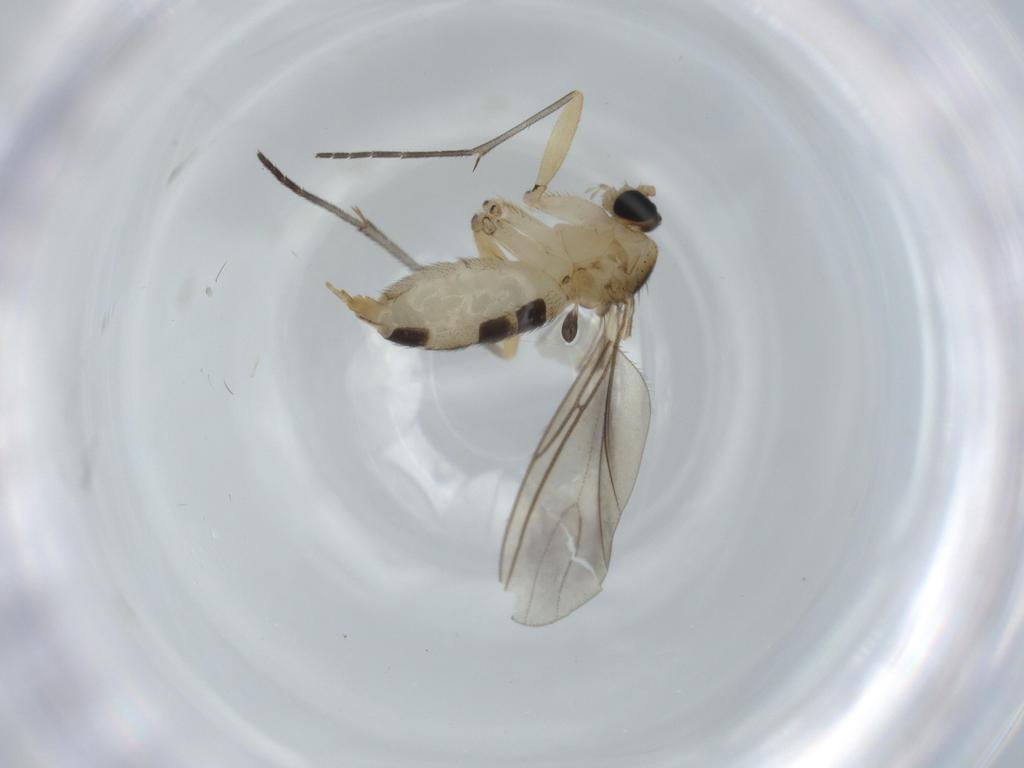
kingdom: Animalia
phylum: Arthropoda
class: Insecta
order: Diptera
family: Sciaridae
